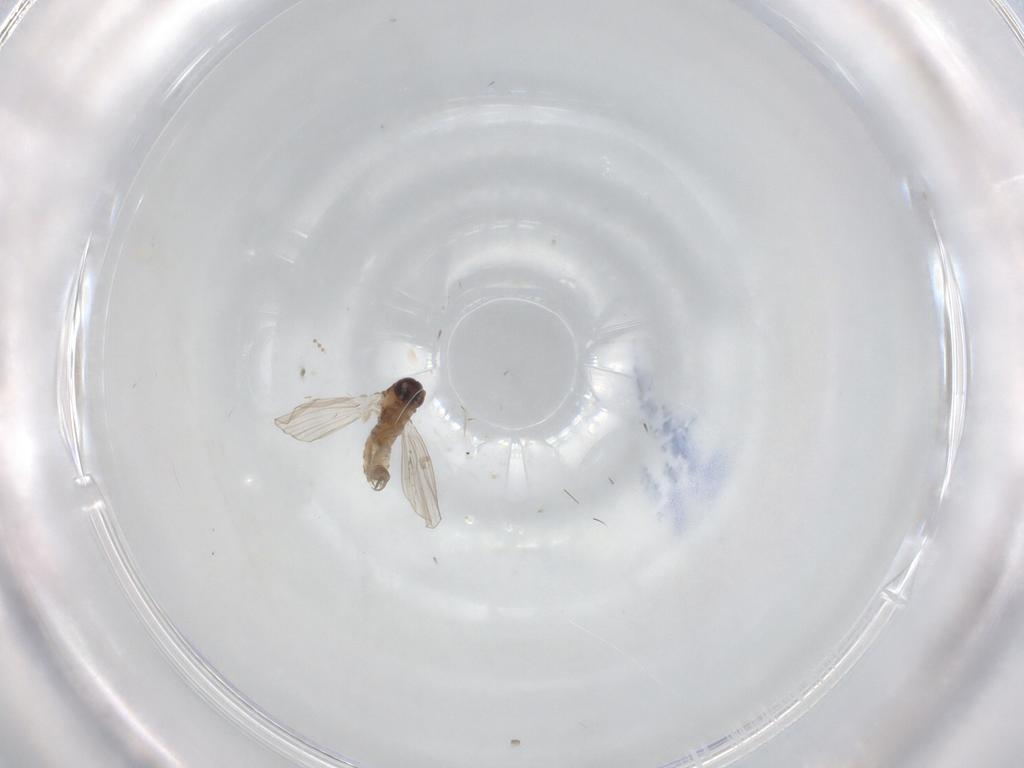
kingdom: Animalia
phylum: Arthropoda
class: Insecta
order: Diptera
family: Psychodidae
